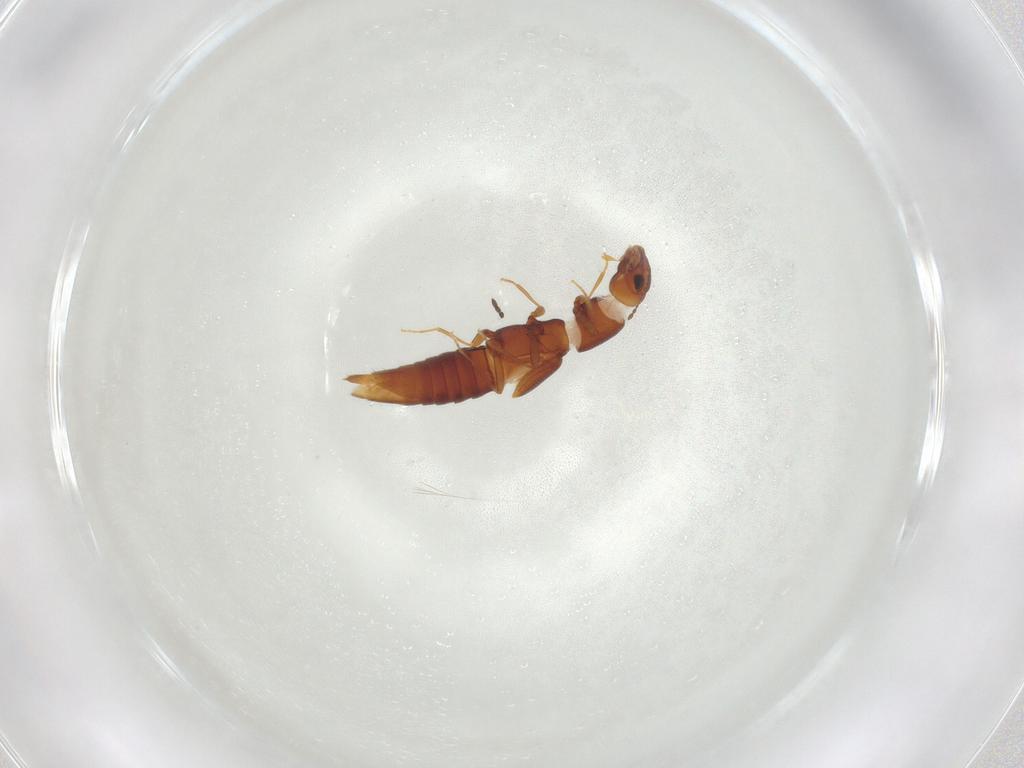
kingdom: Animalia
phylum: Arthropoda
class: Insecta
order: Coleoptera
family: Staphylinidae
